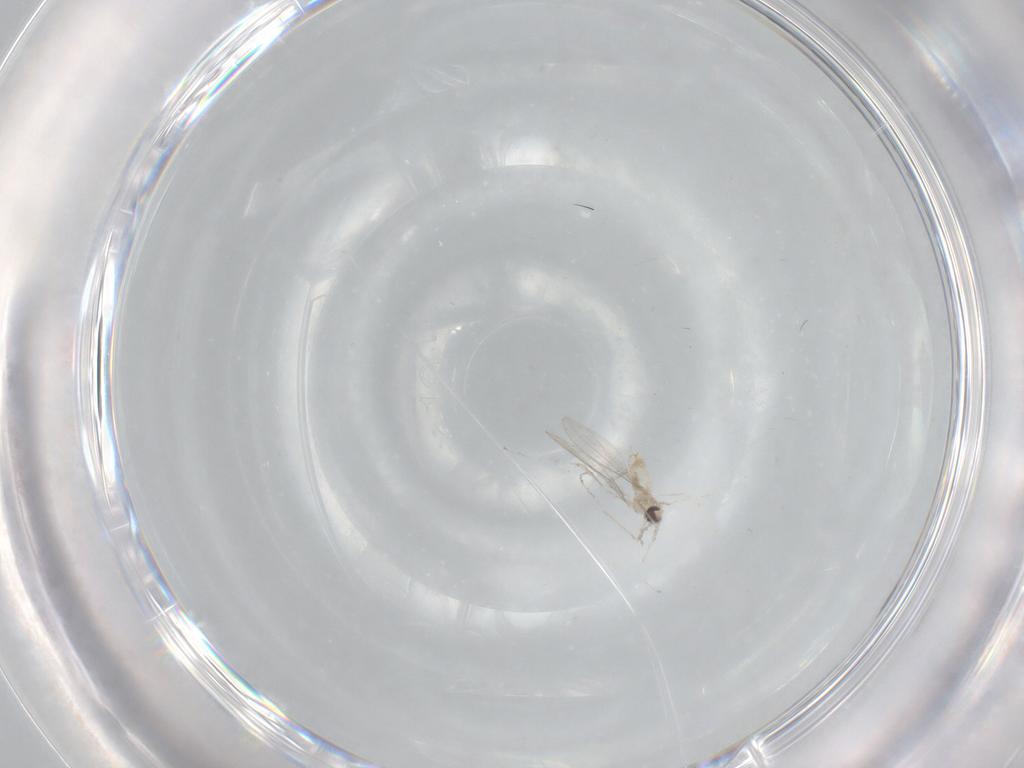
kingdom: Animalia
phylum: Arthropoda
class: Insecta
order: Diptera
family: Cecidomyiidae
